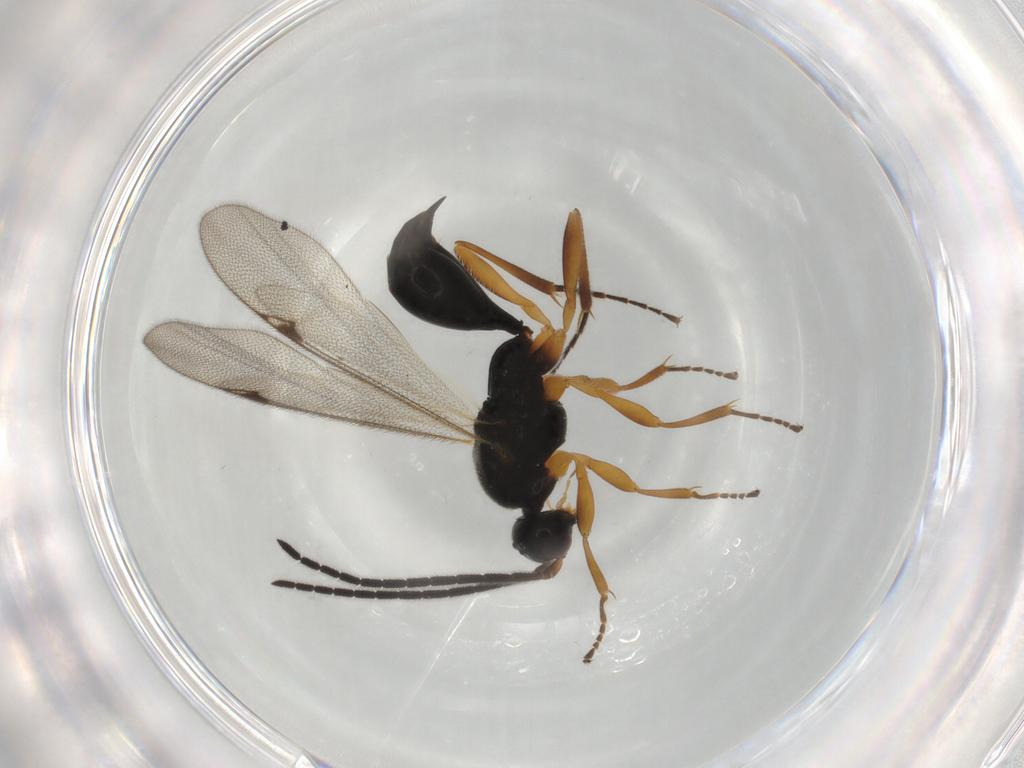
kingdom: Animalia
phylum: Arthropoda
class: Insecta
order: Hymenoptera
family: Proctotrupidae
